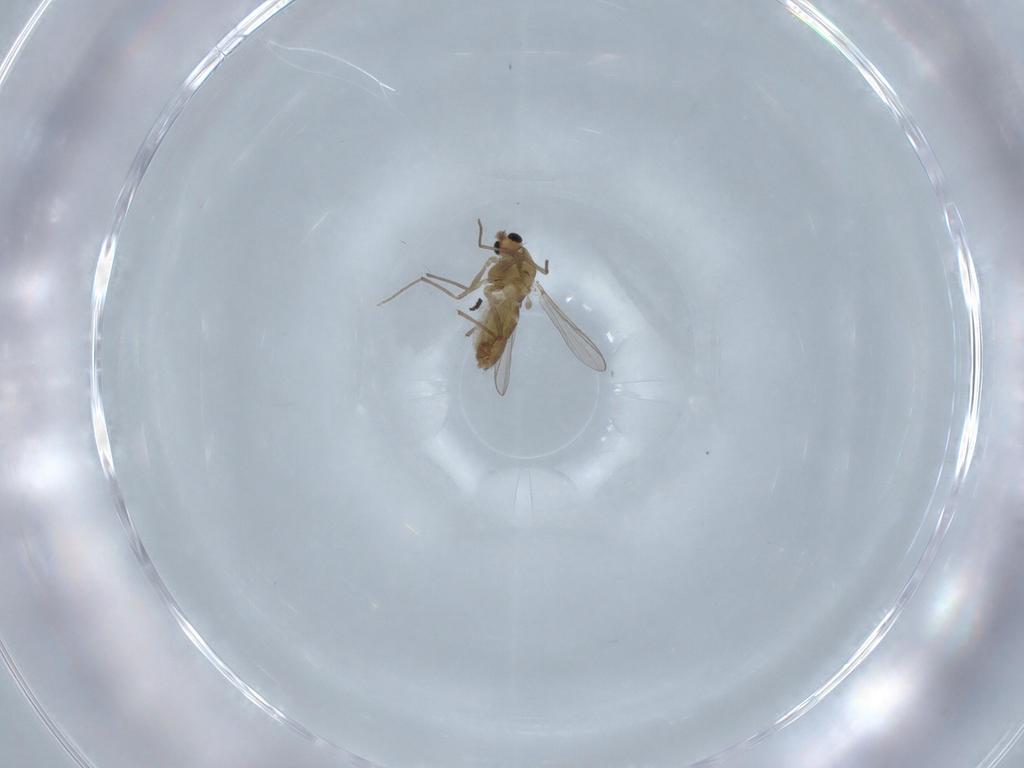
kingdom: Animalia
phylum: Arthropoda
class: Insecta
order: Diptera
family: Chironomidae
